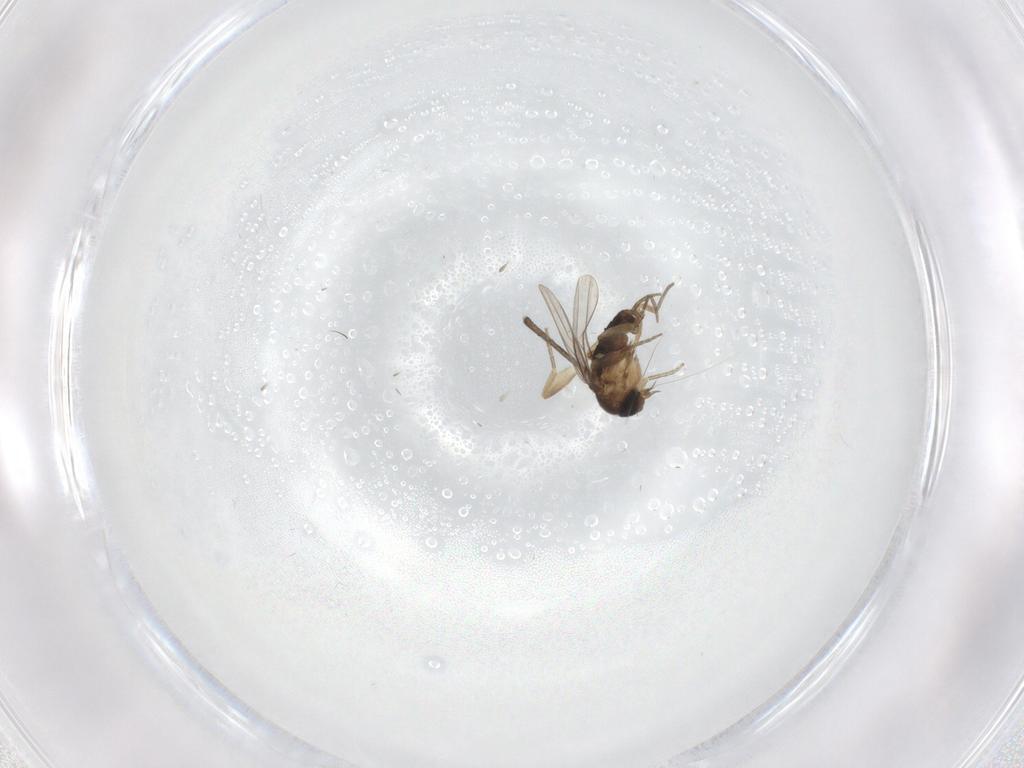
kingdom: Animalia
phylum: Arthropoda
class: Insecta
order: Diptera
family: Phoridae
